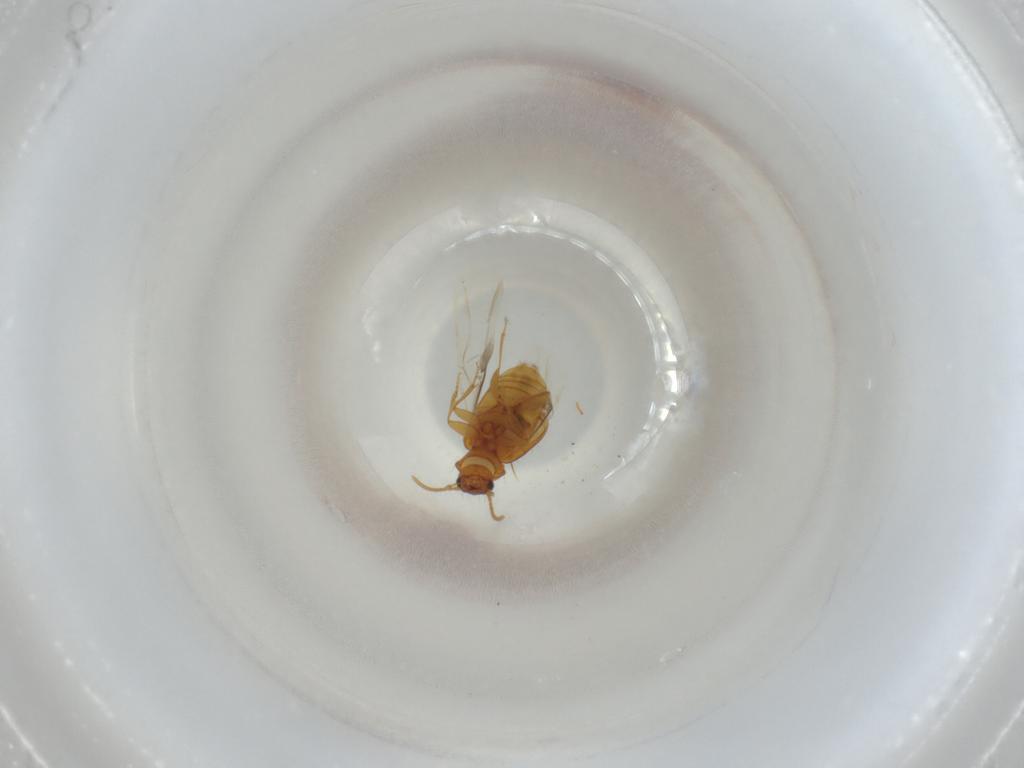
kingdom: Animalia
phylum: Arthropoda
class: Insecta
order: Coleoptera
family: Carabidae
